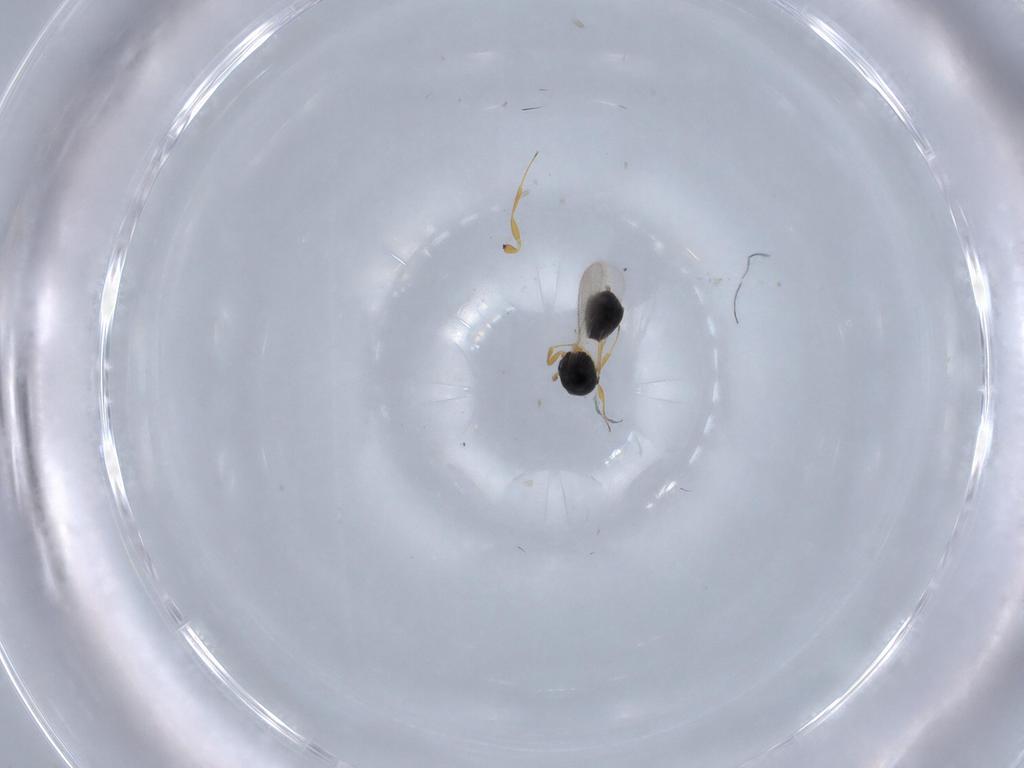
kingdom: Animalia
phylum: Arthropoda
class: Insecta
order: Hymenoptera
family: Scelionidae
